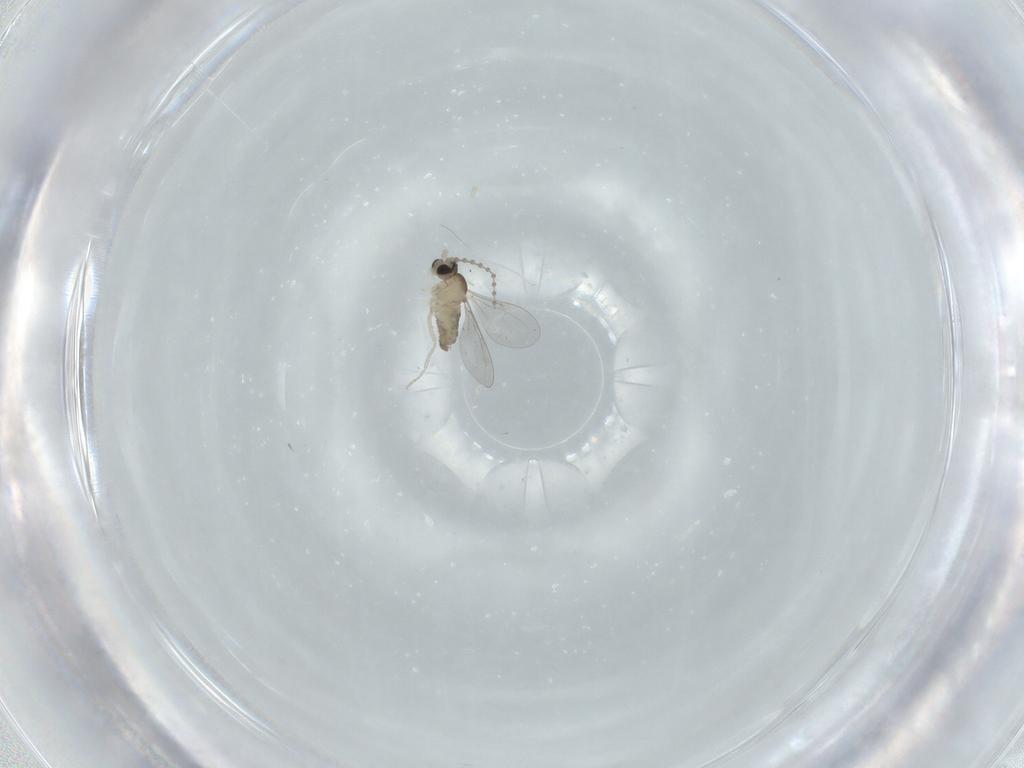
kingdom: Animalia
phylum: Arthropoda
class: Insecta
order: Diptera
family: Cecidomyiidae
